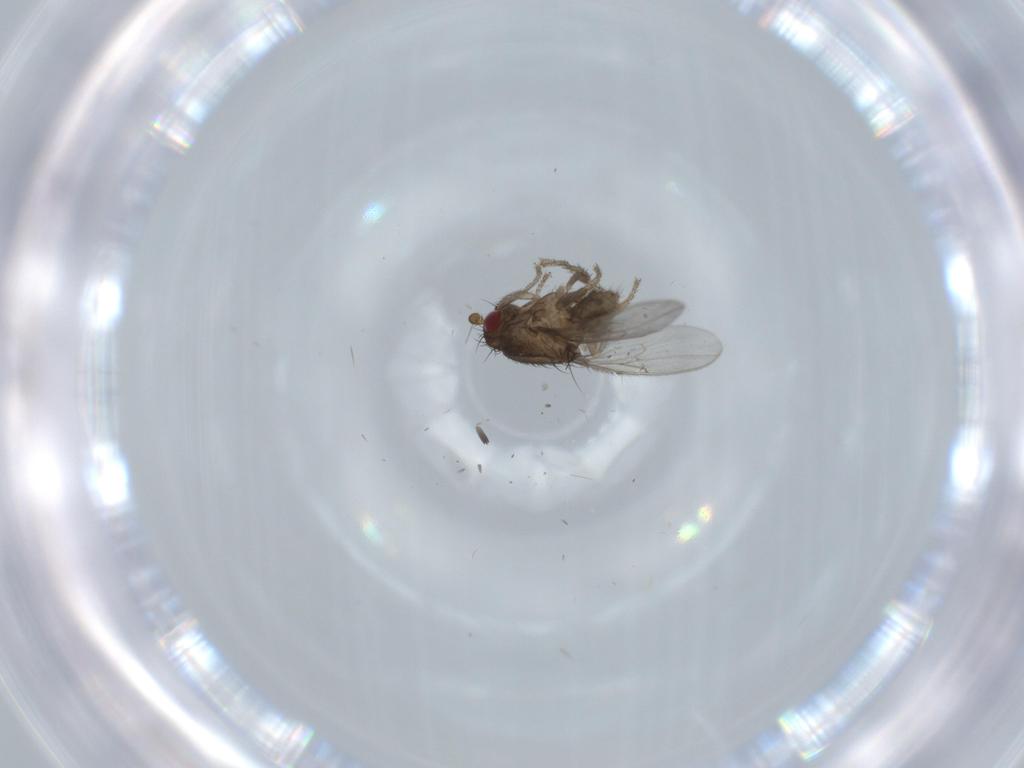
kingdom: Animalia
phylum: Arthropoda
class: Insecta
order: Diptera
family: Sphaeroceridae
